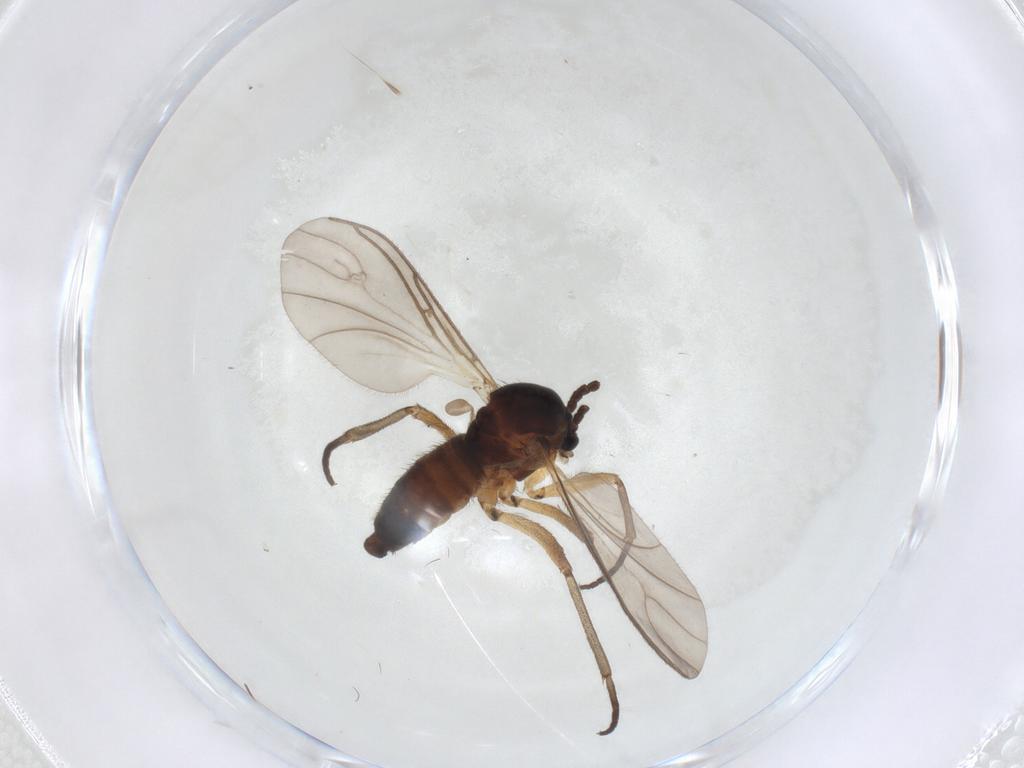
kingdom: Animalia
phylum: Arthropoda
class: Insecta
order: Diptera
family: Sciaridae
